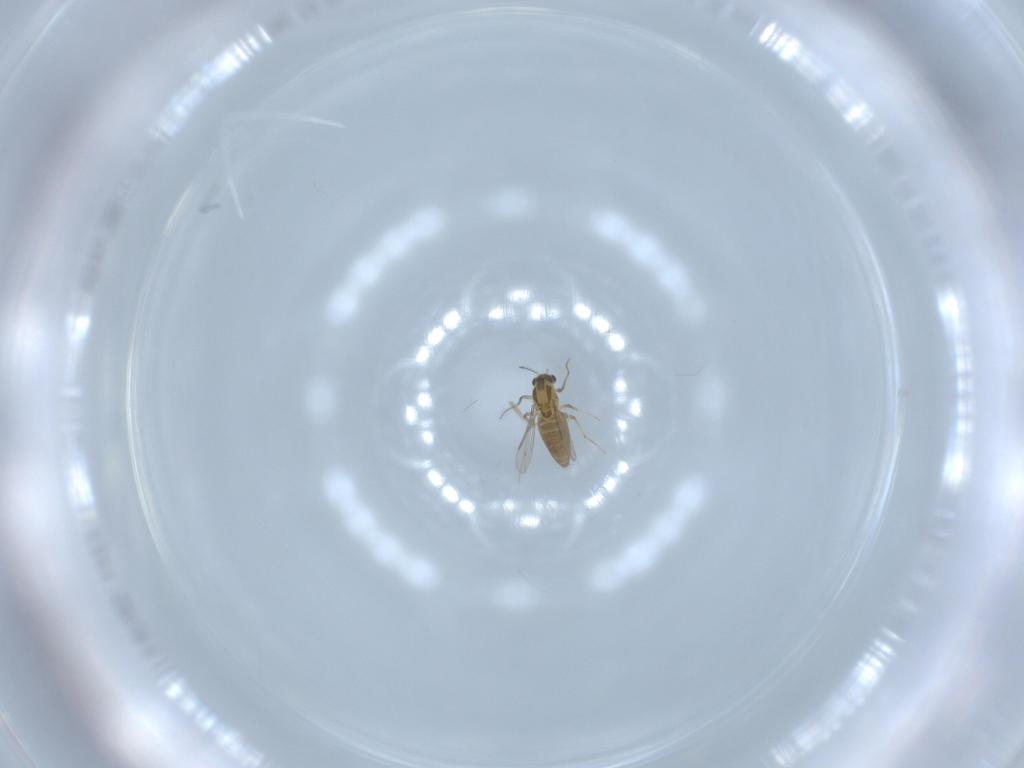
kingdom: Animalia
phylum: Arthropoda
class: Insecta
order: Diptera
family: Chironomidae
